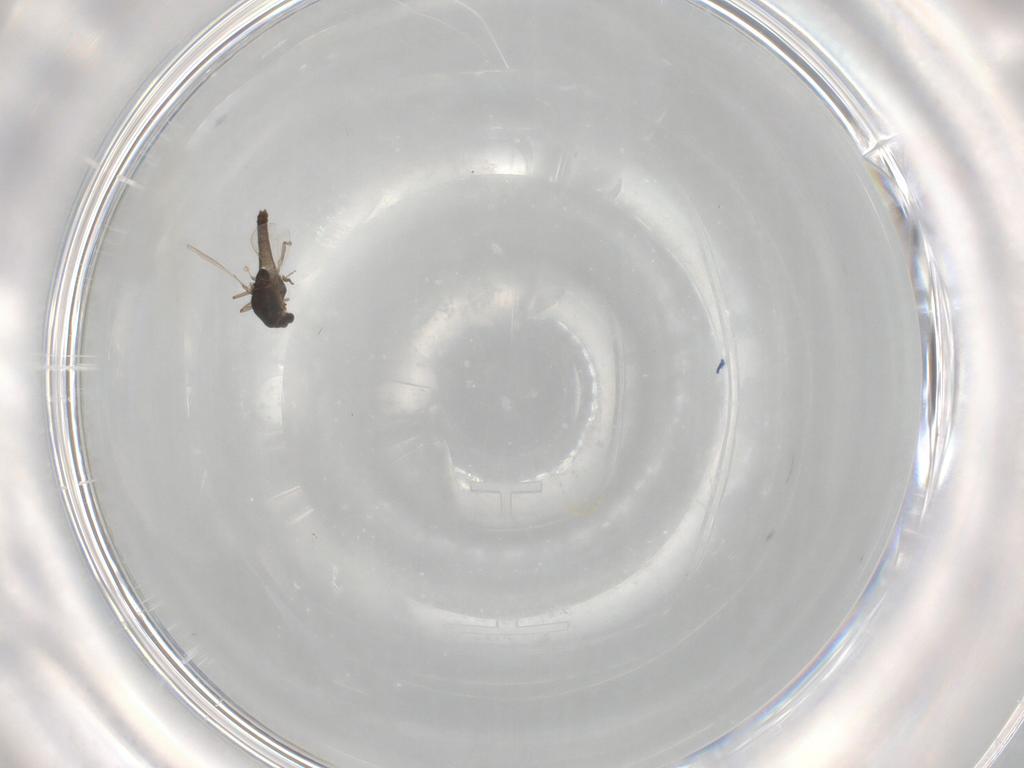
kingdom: Animalia
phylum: Arthropoda
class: Insecta
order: Diptera
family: Chironomidae
